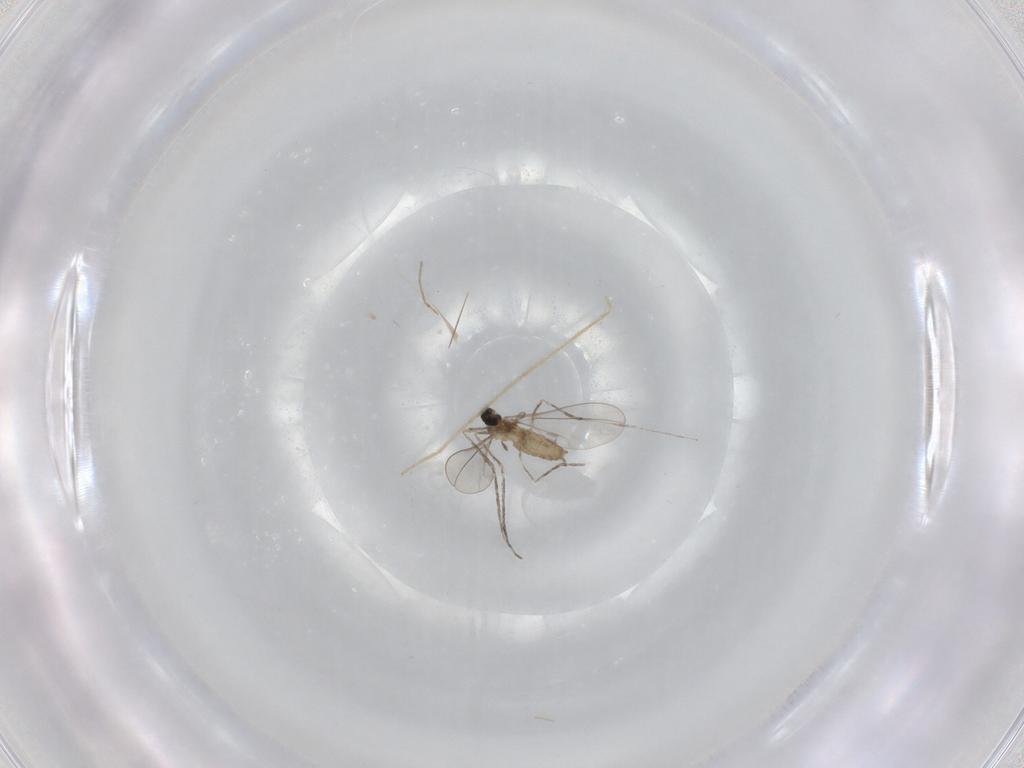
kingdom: Animalia
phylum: Arthropoda
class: Insecta
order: Diptera
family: Cecidomyiidae
